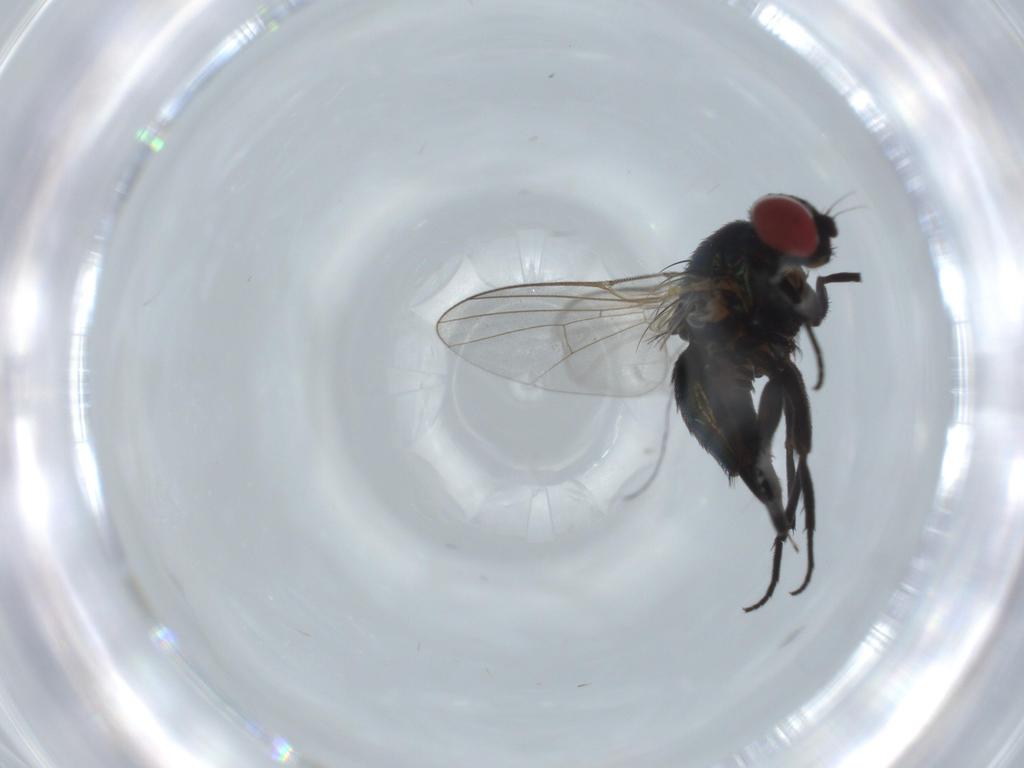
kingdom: Animalia
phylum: Arthropoda
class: Insecta
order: Diptera
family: Agromyzidae
